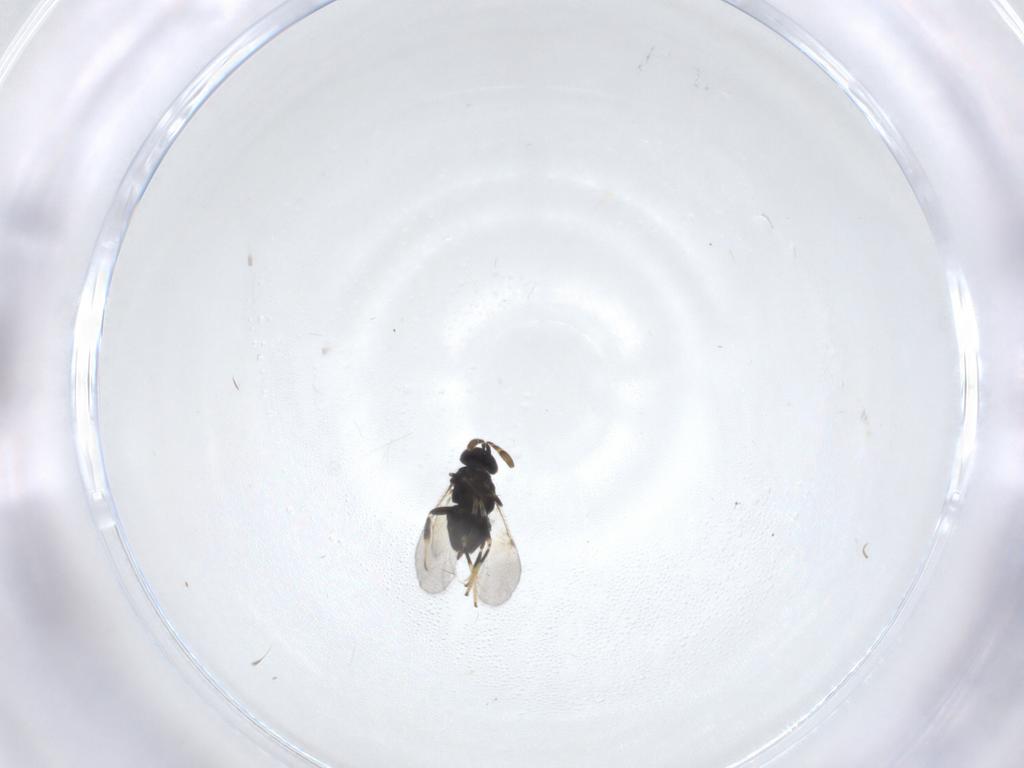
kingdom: Animalia
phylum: Arthropoda
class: Insecta
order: Hymenoptera
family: Encyrtidae
